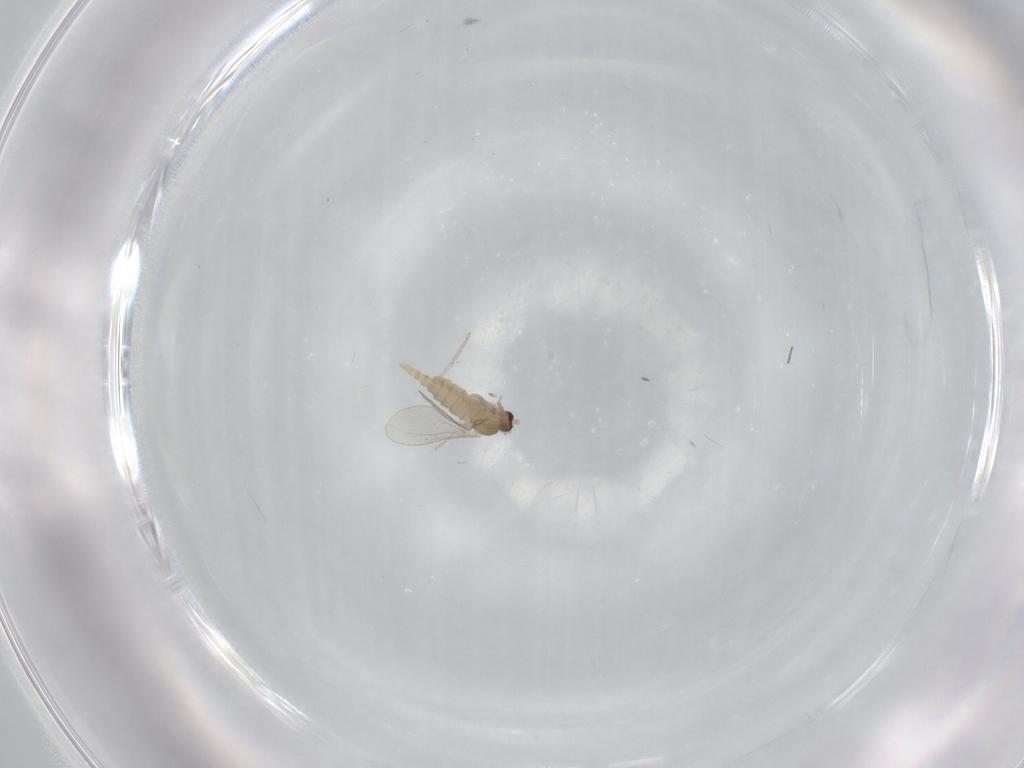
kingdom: Animalia
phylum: Arthropoda
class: Insecta
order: Diptera
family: Cecidomyiidae
